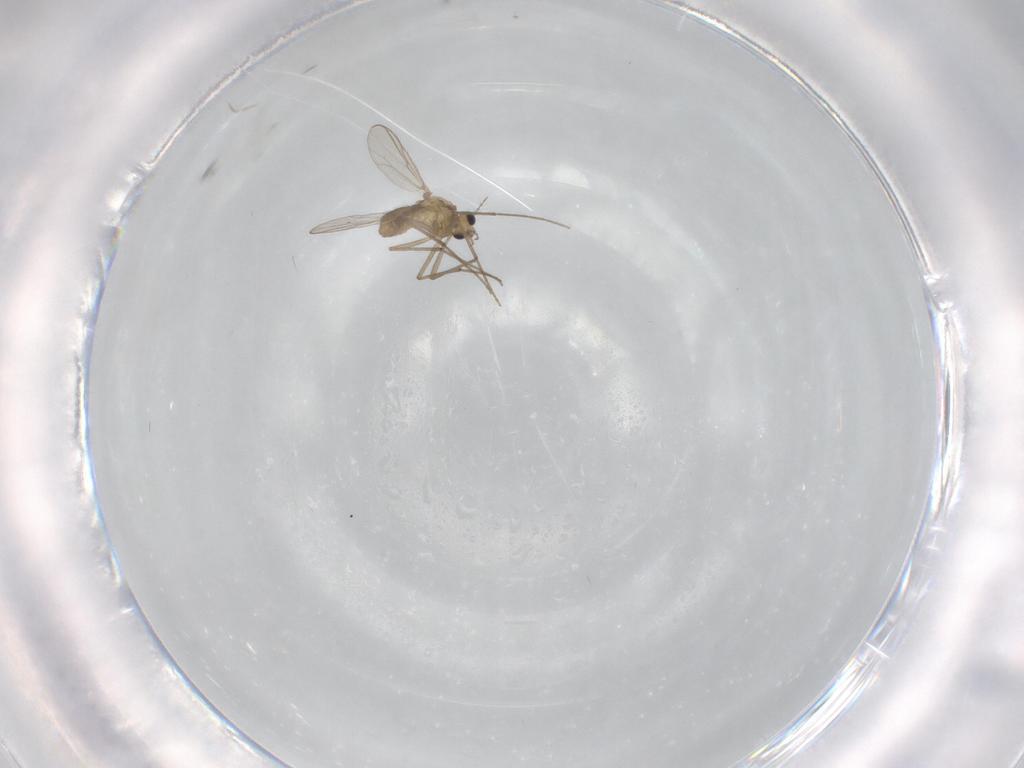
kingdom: Animalia
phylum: Arthropoda
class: Insecta
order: Diptera
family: Chironomidae
